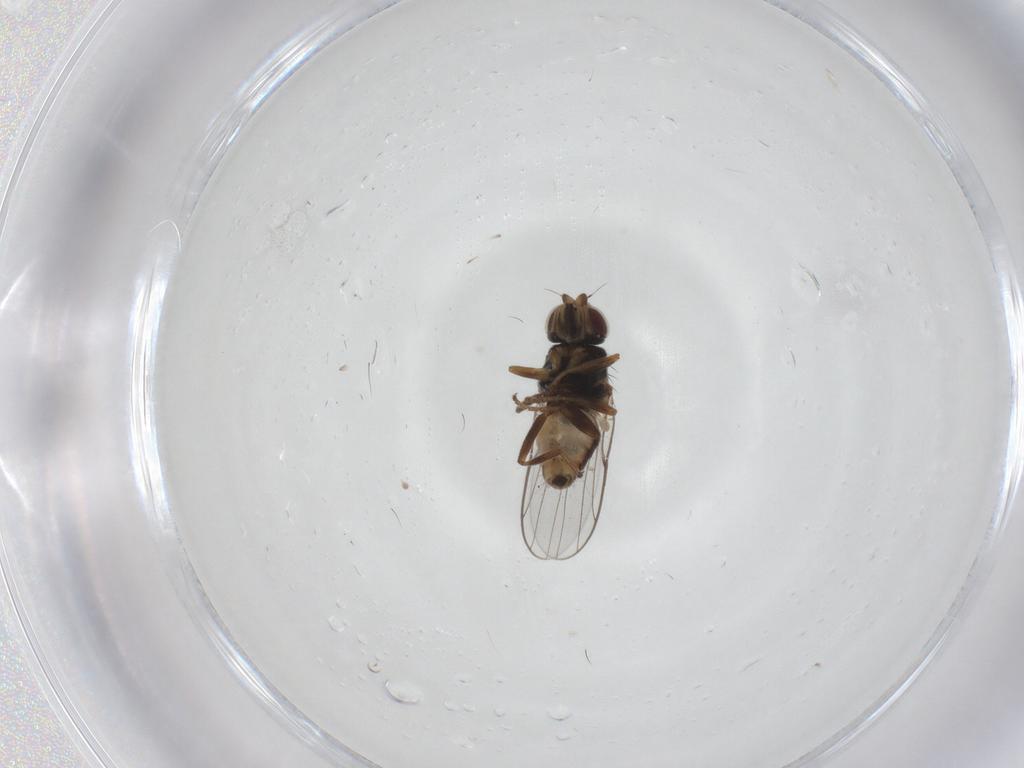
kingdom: Animalia
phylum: Arthropoda
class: Insecta
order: Diptera
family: Chloropidae
